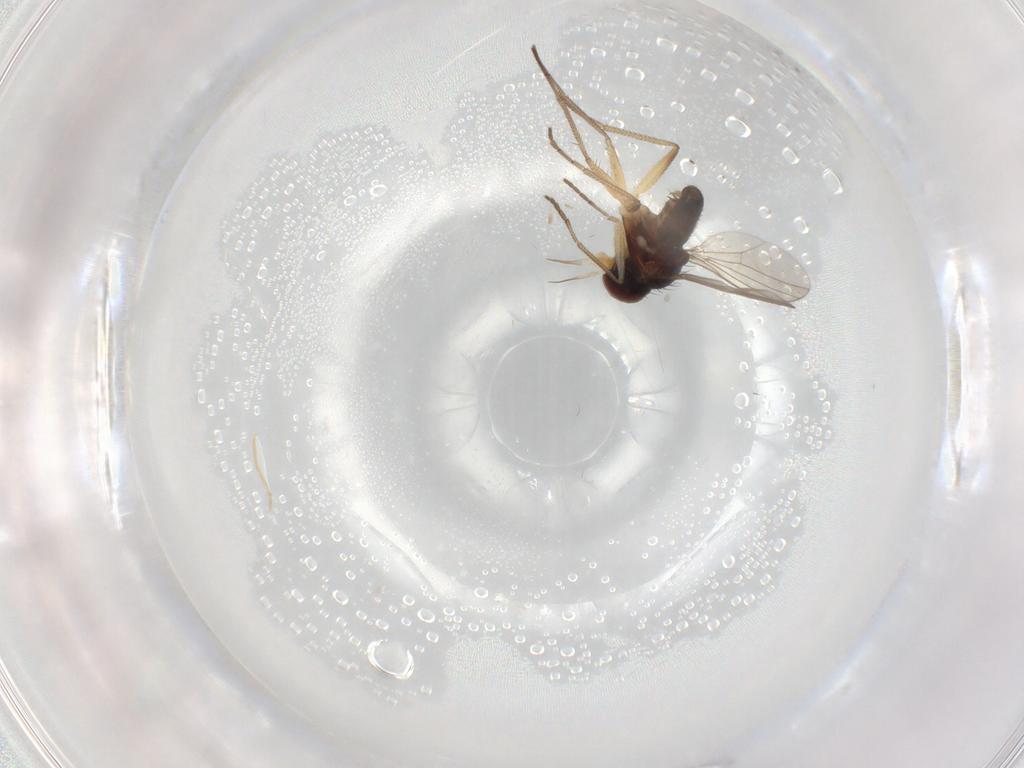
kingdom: Animalia
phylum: Arthropoda
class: Insecta
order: Diptera
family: Dolichopodidae
